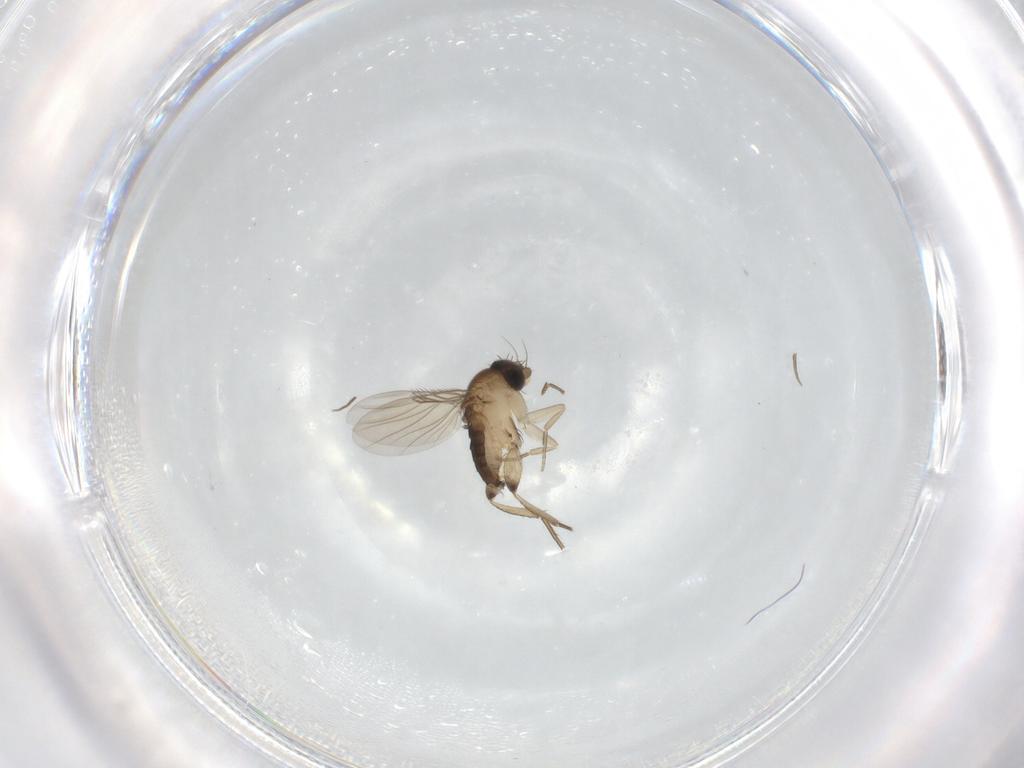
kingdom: Animalia
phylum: Arthropoda
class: Insecta
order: Diptera
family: Phoridae
